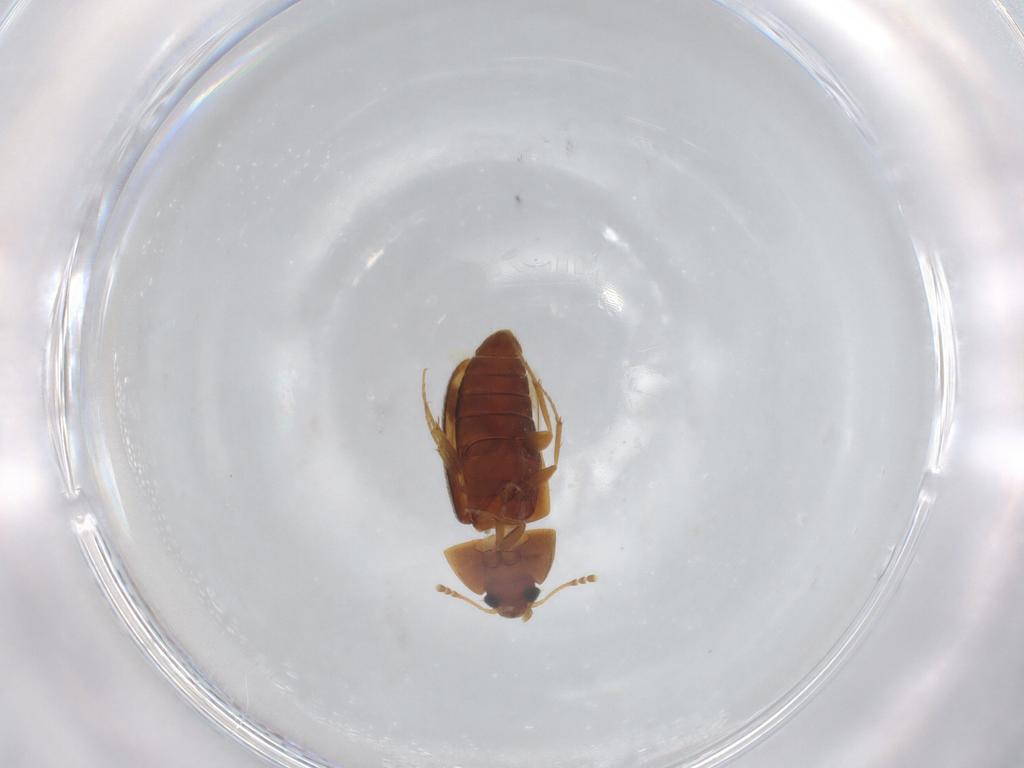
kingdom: Animalia
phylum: Arthropoda
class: Insecta
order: Coleoptera
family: Mycetophagidae
